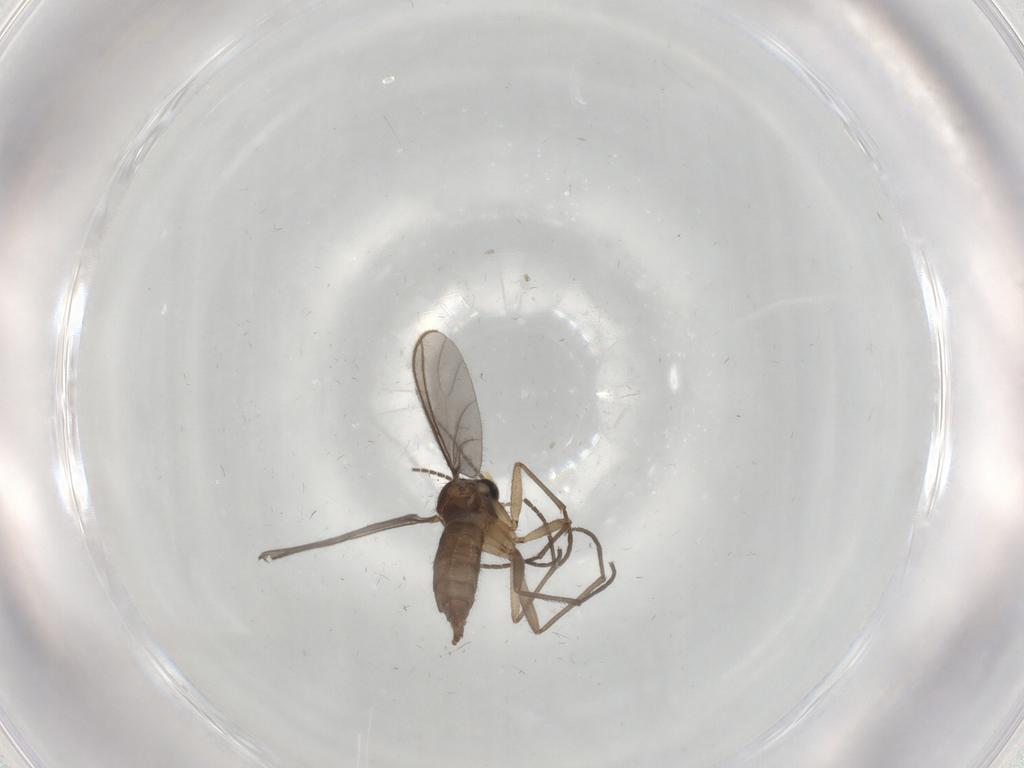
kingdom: Animalia
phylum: Arthropoda
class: Insecta
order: Diptera
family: Sciaridae
